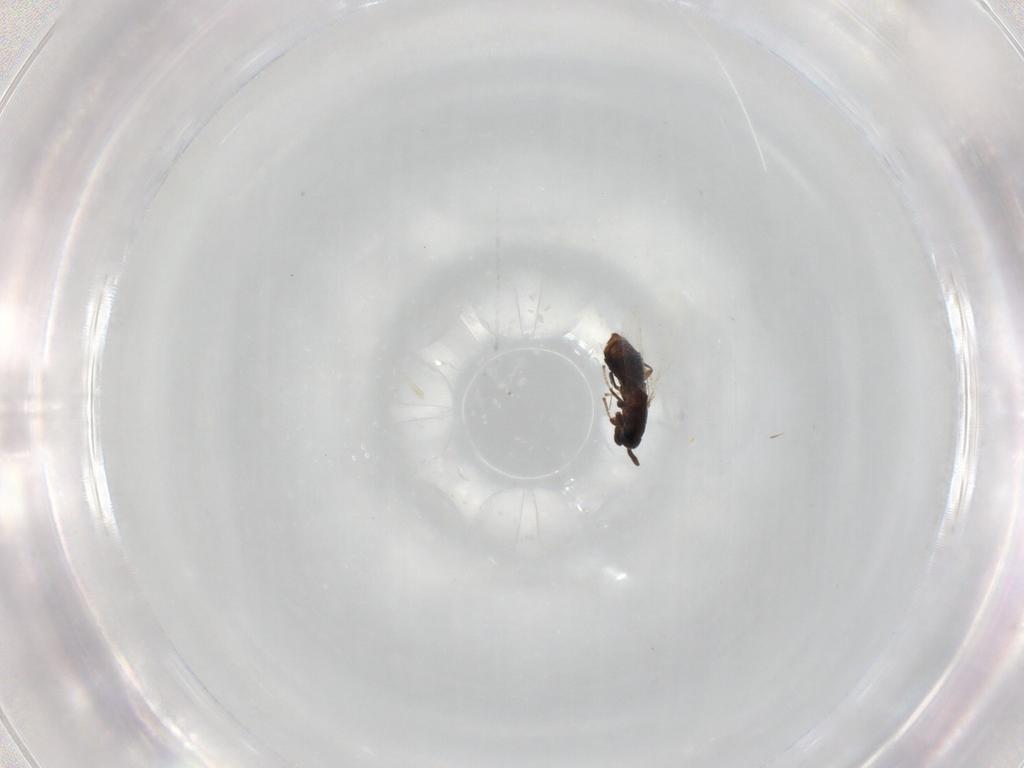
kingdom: Animalia
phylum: Arthropoda
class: Insecta
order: Diptera
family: Scatopsidae
